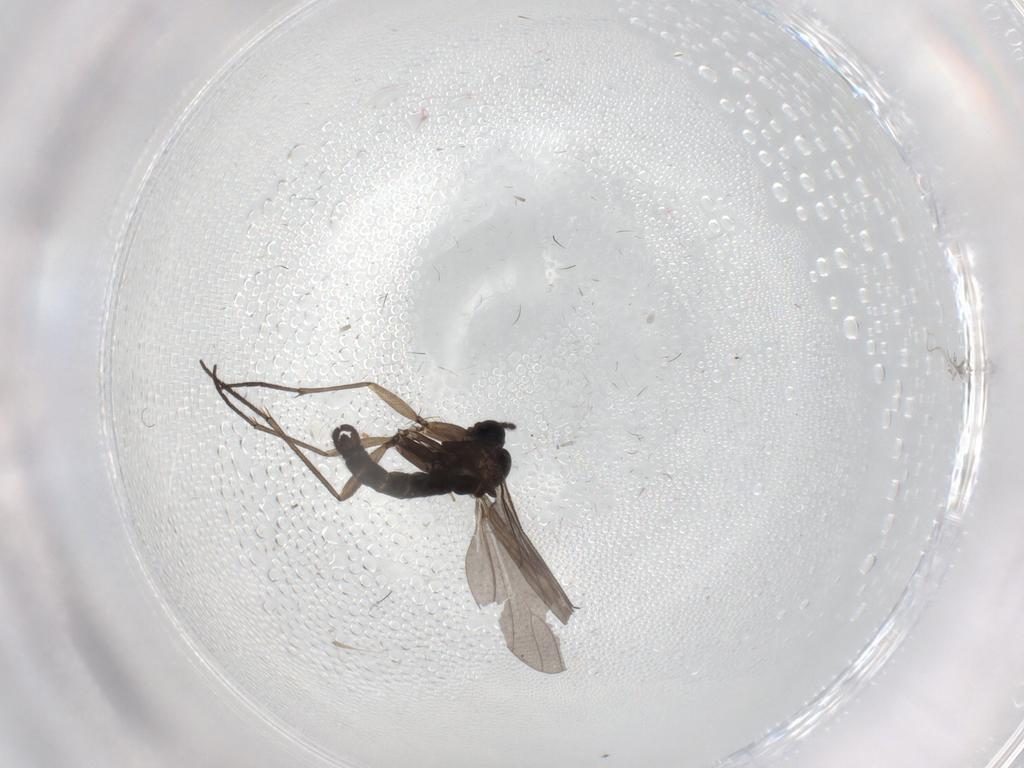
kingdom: Animalia
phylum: Arthropoda
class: Insecta
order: Diptera
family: Sciaridae
